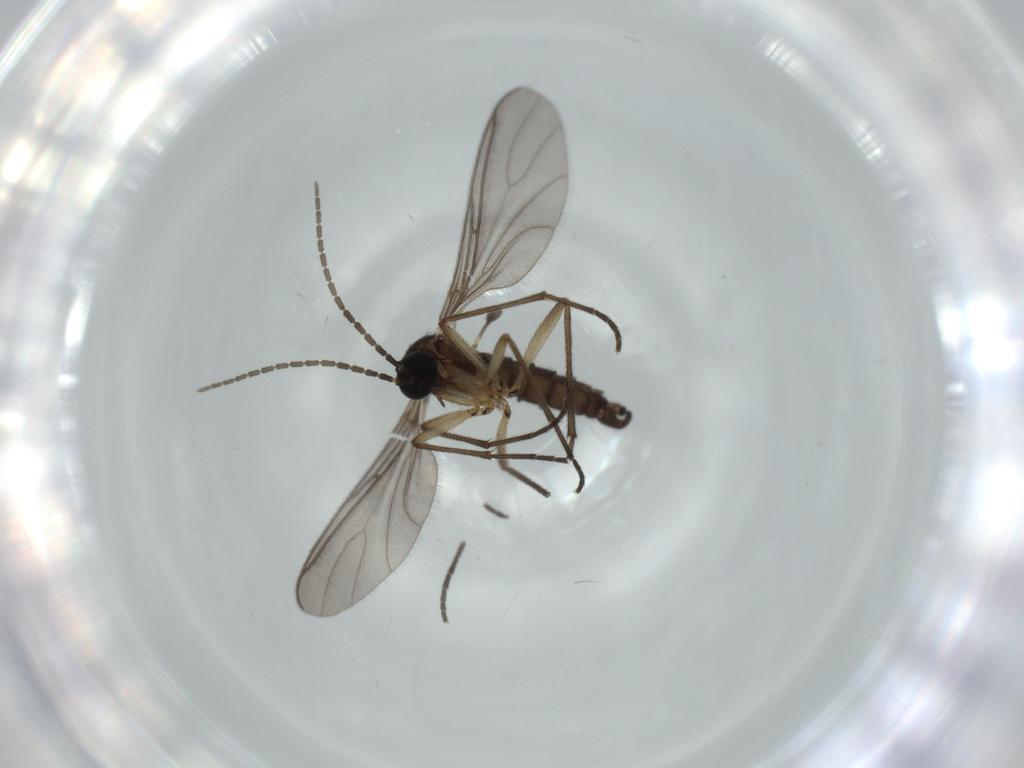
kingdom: Animalia
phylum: Arthropoda
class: Insecta
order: Diptera
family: Sciaridae
